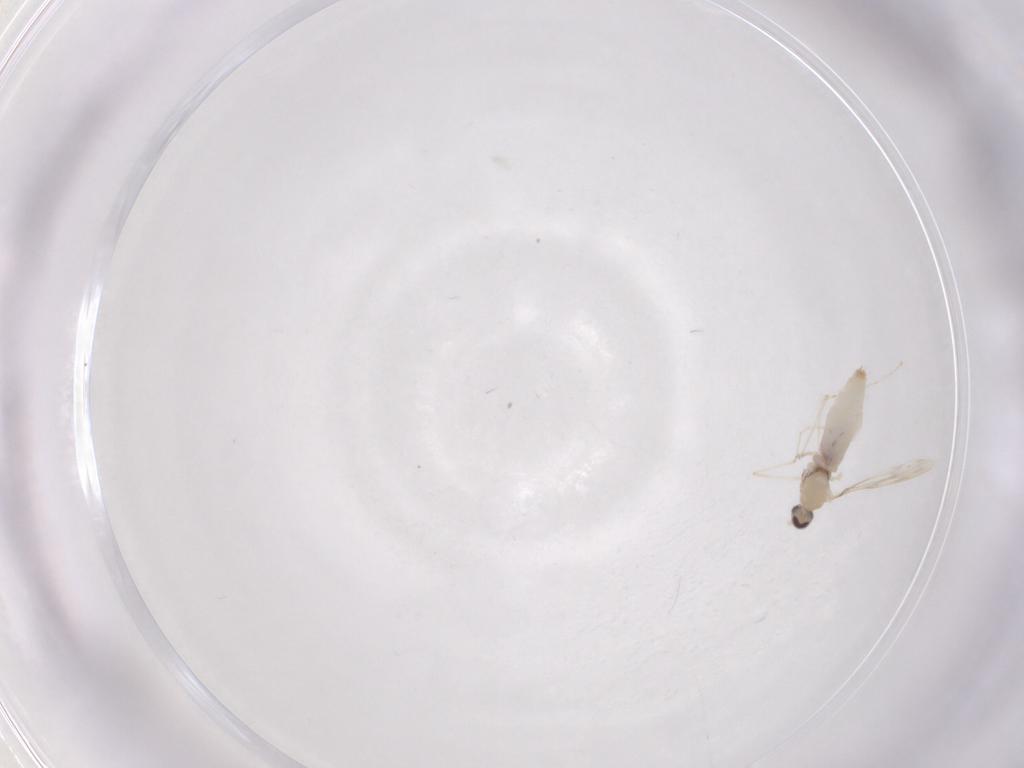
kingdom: Animalia
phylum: Arthropoda
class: Insecta
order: Diptera
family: Cecidomyiidae
